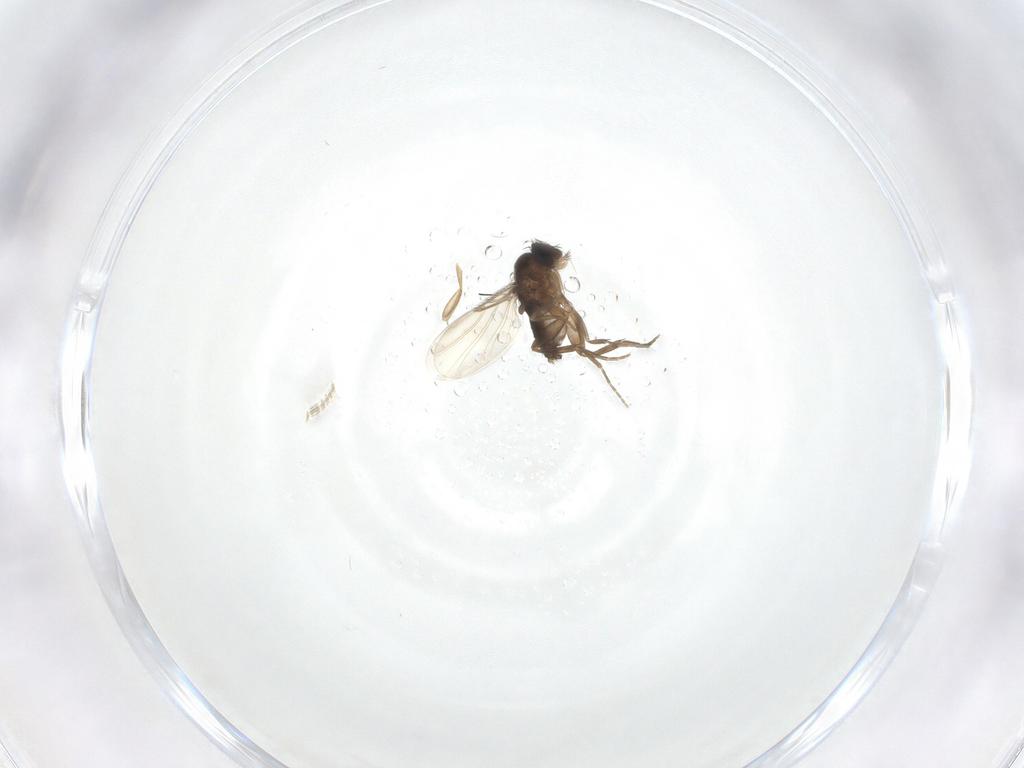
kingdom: Animalia
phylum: Arthropoda
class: Insecta
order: Diptera
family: Phoridae
